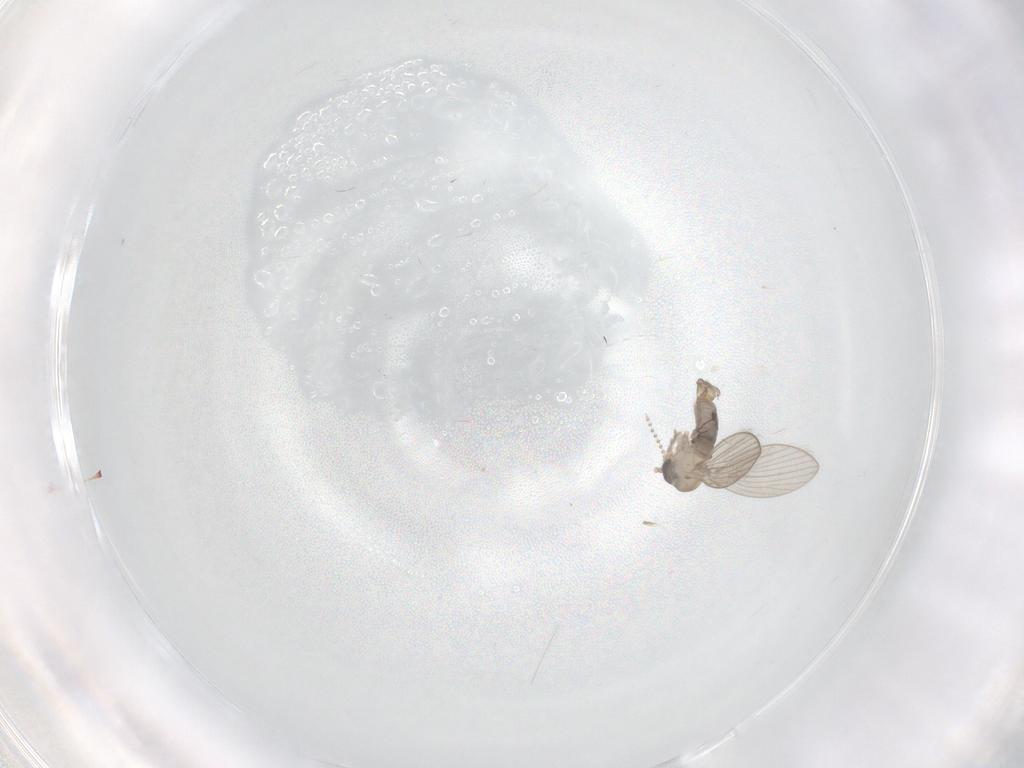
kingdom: Animalia
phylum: Arthropoda
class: Insecta
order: Diptera
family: Psychodidae
